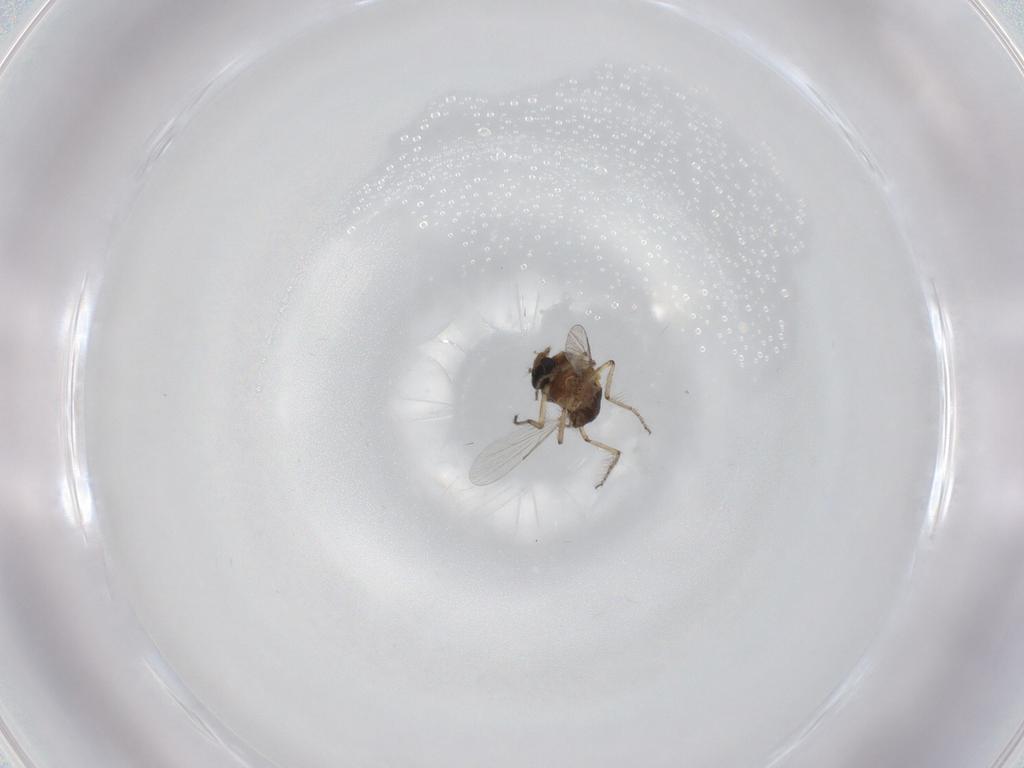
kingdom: Animalia
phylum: Arthropoda
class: Insecta
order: Diptera
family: Ceratopogonidae
